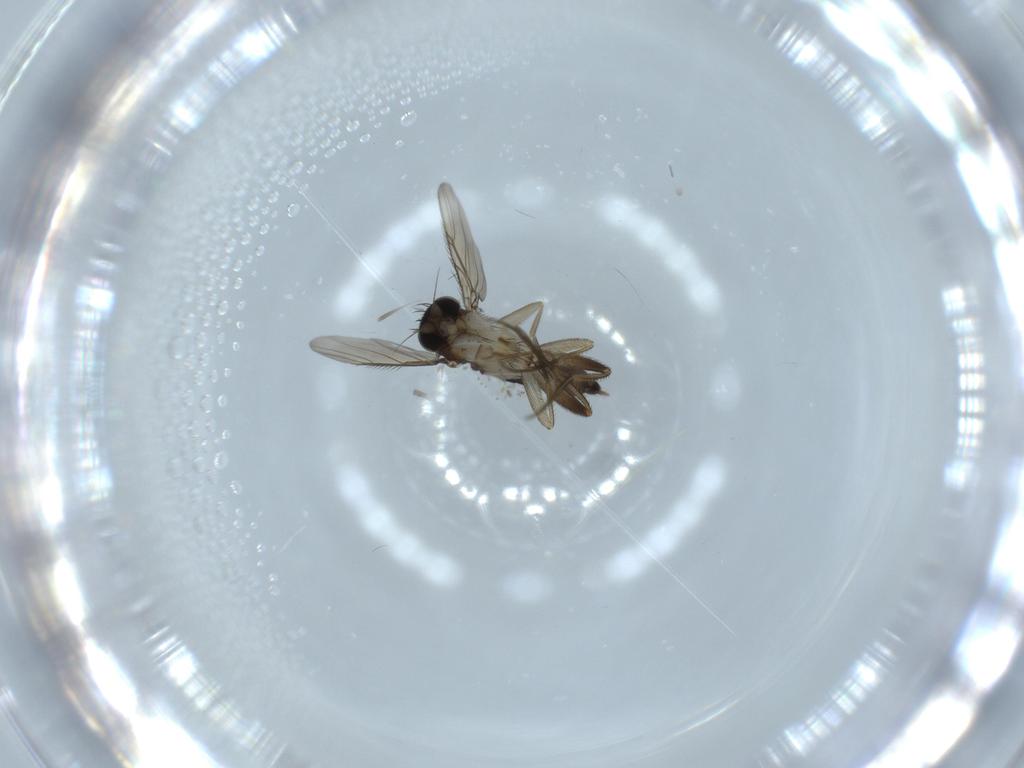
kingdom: Animalia
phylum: Arthropoda
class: Insecta
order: Diptera
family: Phoridae
